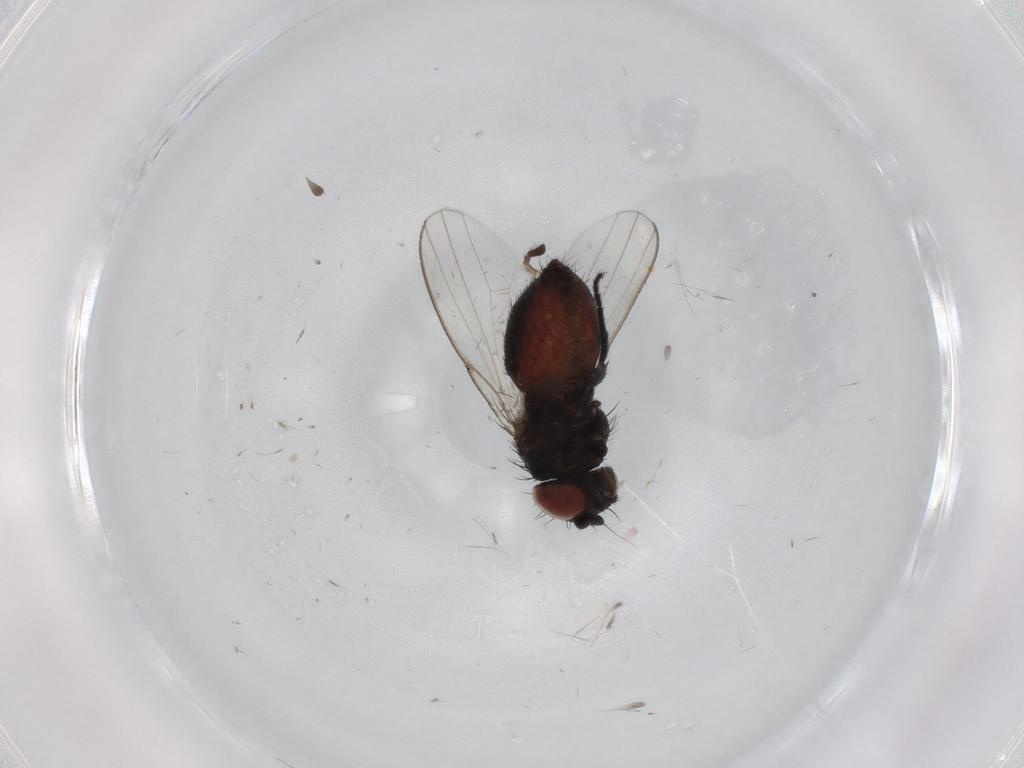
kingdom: Animalia
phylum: Arthropoda
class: Insecta
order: Diptera
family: Milichiidae
